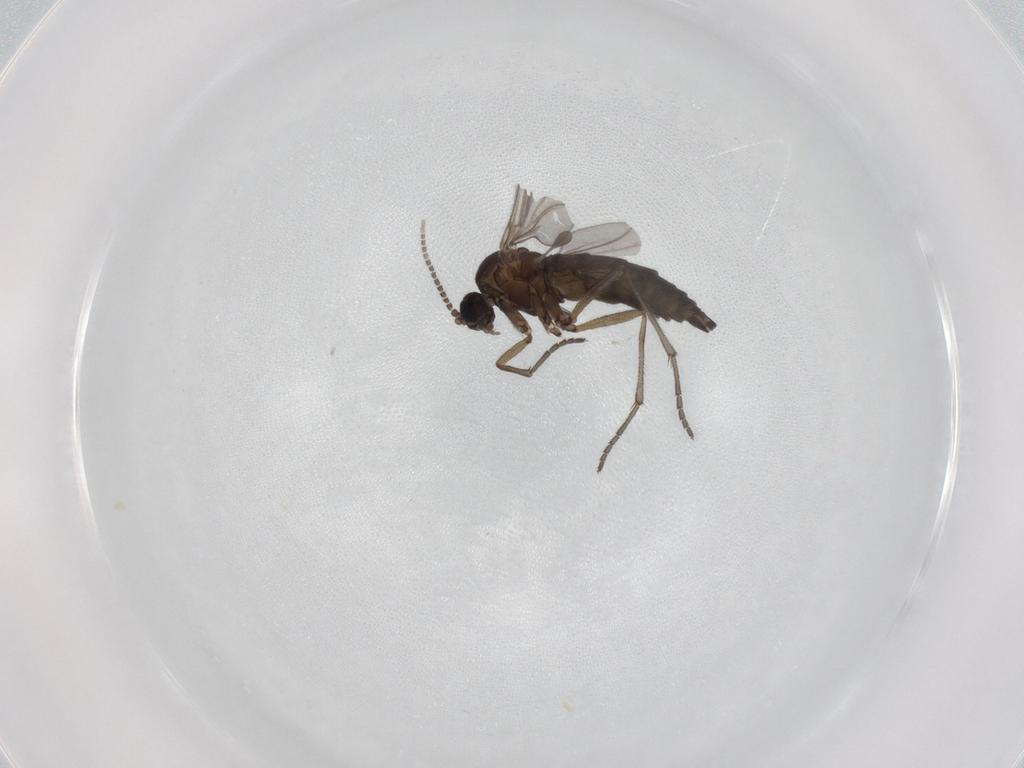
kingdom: Animalia
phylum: Arthropoda
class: Insecta
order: Diptera
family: Sciaridae
